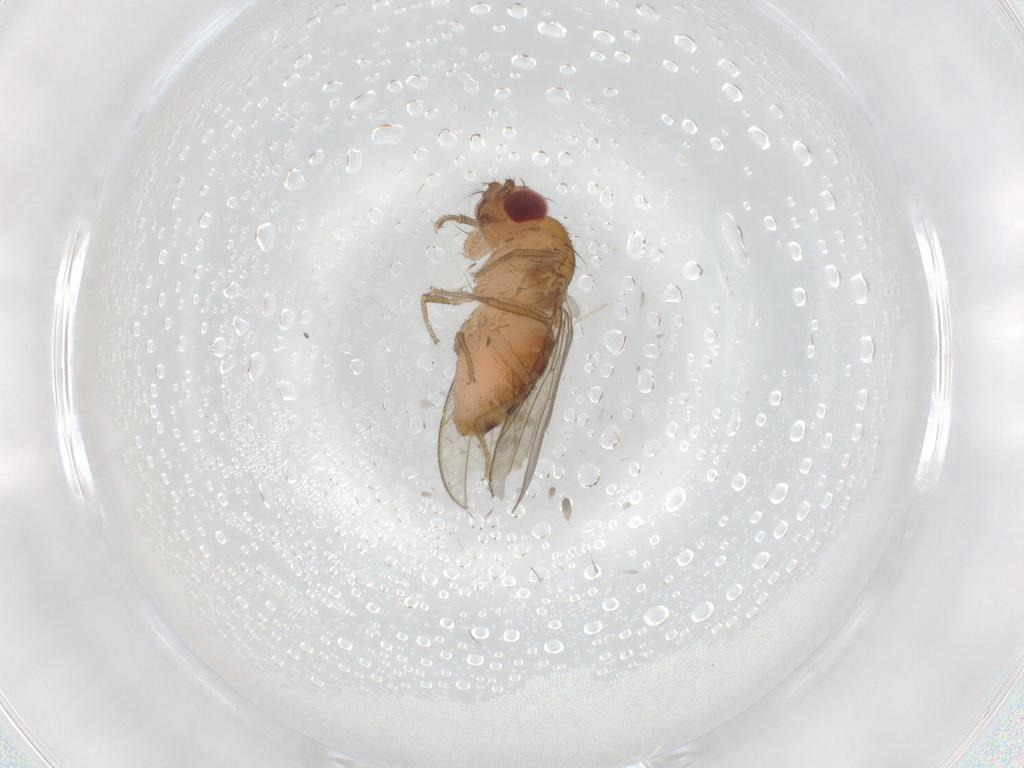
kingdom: Animalia
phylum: Arthropoda
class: Insecta
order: Diptera
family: Drosophilidae
